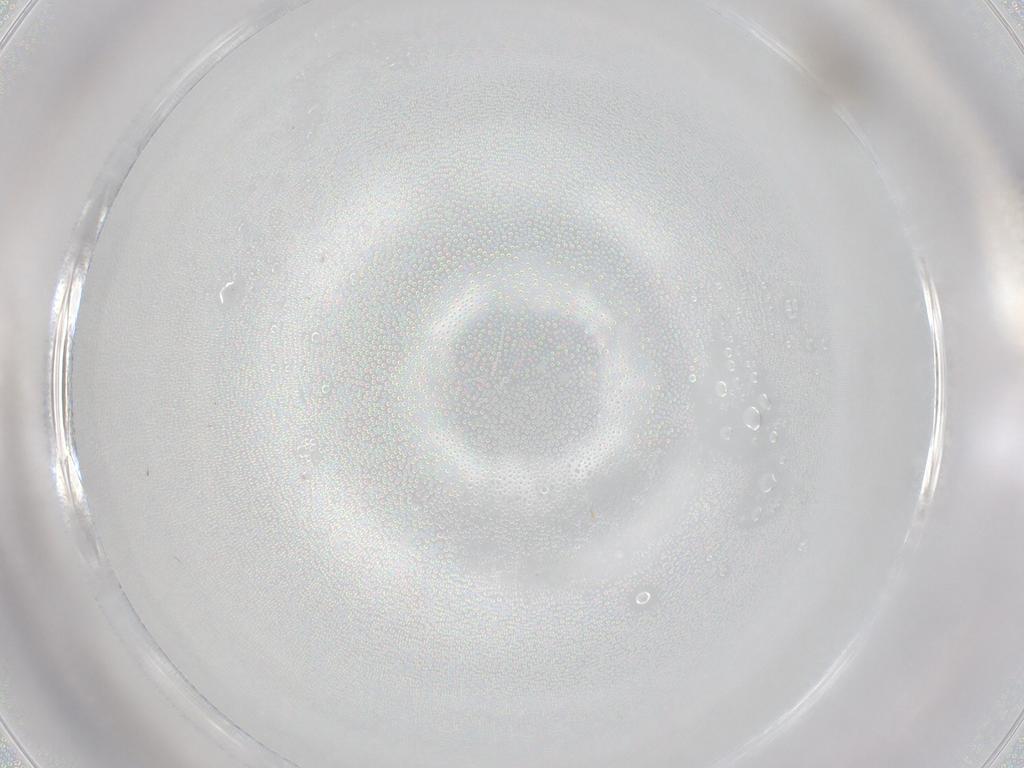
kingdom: Animalia
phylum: Arthropoda
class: Insecta
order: Diptera
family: Cecidomyiidae
